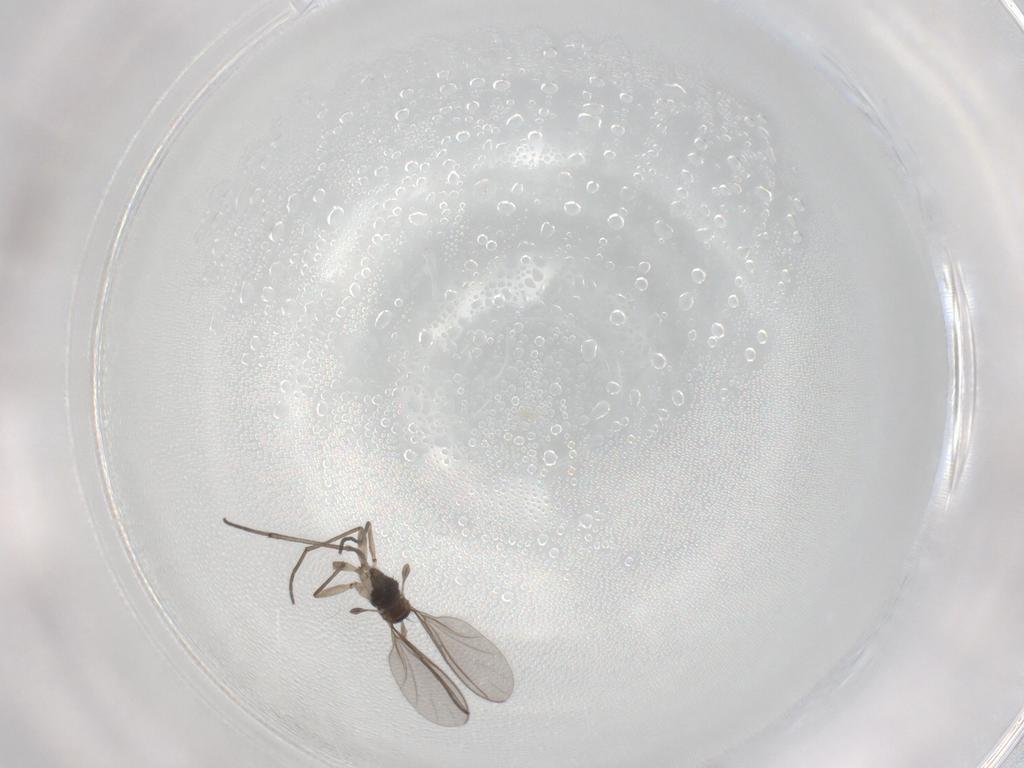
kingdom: Animalia
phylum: Arthropoda
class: Insecta
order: Diptera
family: Sciaridae
